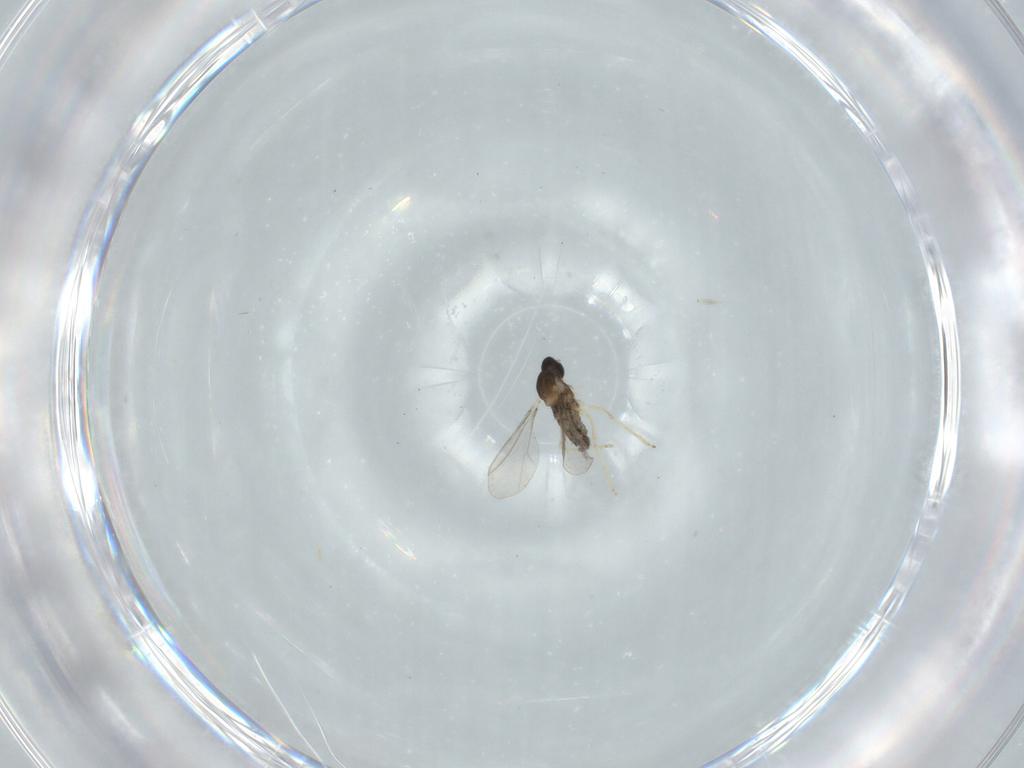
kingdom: Animalia
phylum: Arthropoda
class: Insecta
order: Diptera
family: Cecidomyiidae
